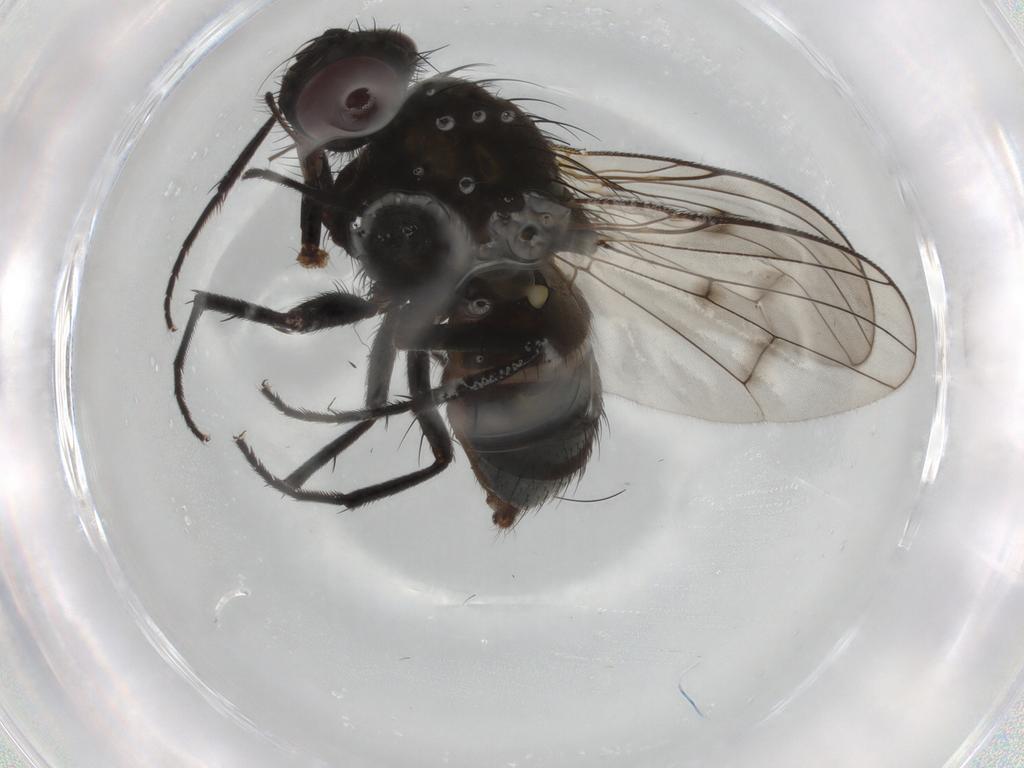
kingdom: Animalia
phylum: Arthropoda
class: Insecta
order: Diptera
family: Muscidae
